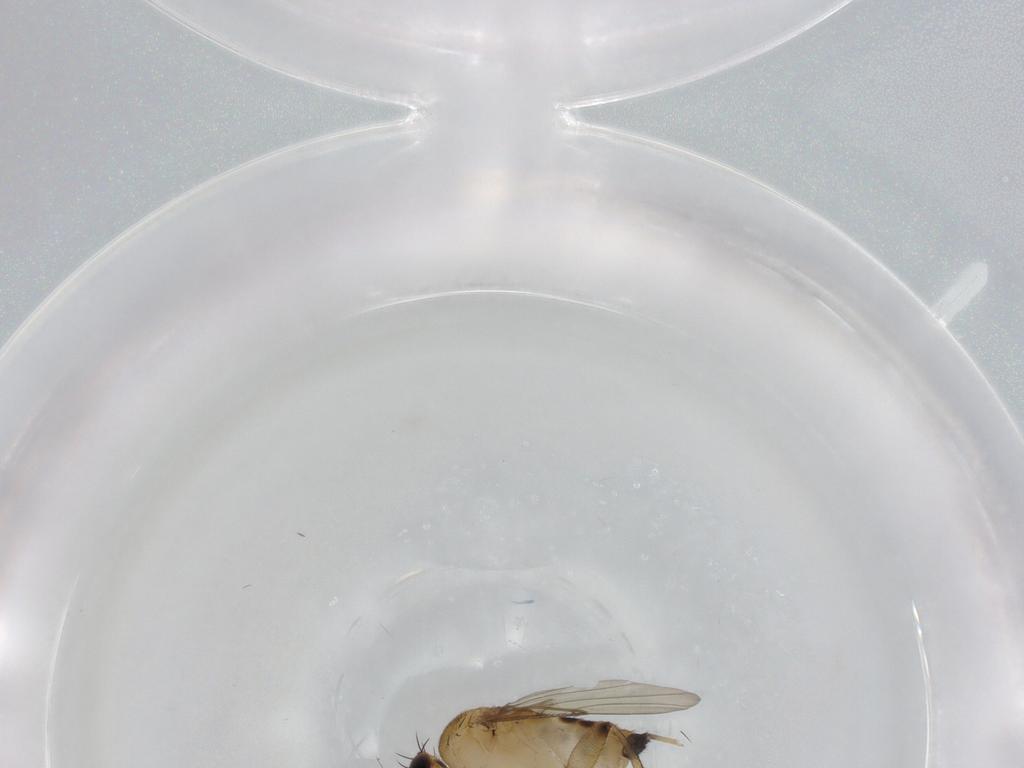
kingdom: Animalia
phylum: Arthropoda
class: Insecta
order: Diptera
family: Phoridae
